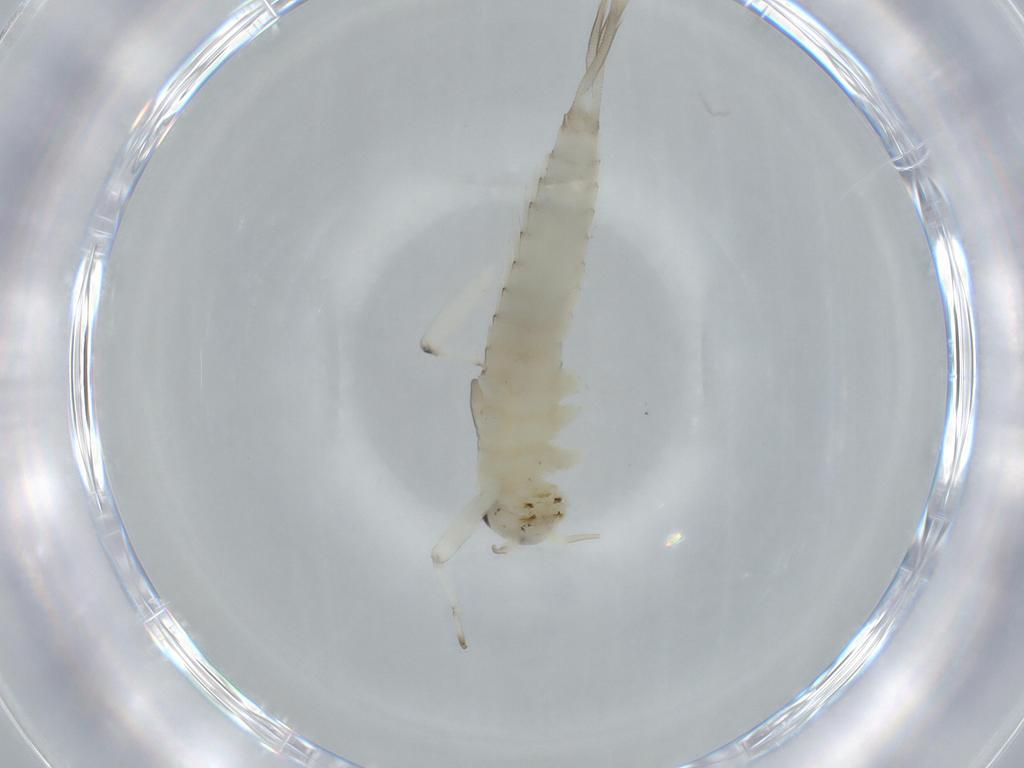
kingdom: Animalia
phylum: Arthropoda
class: Insecta
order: Ephemeroptera
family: Baetidae
